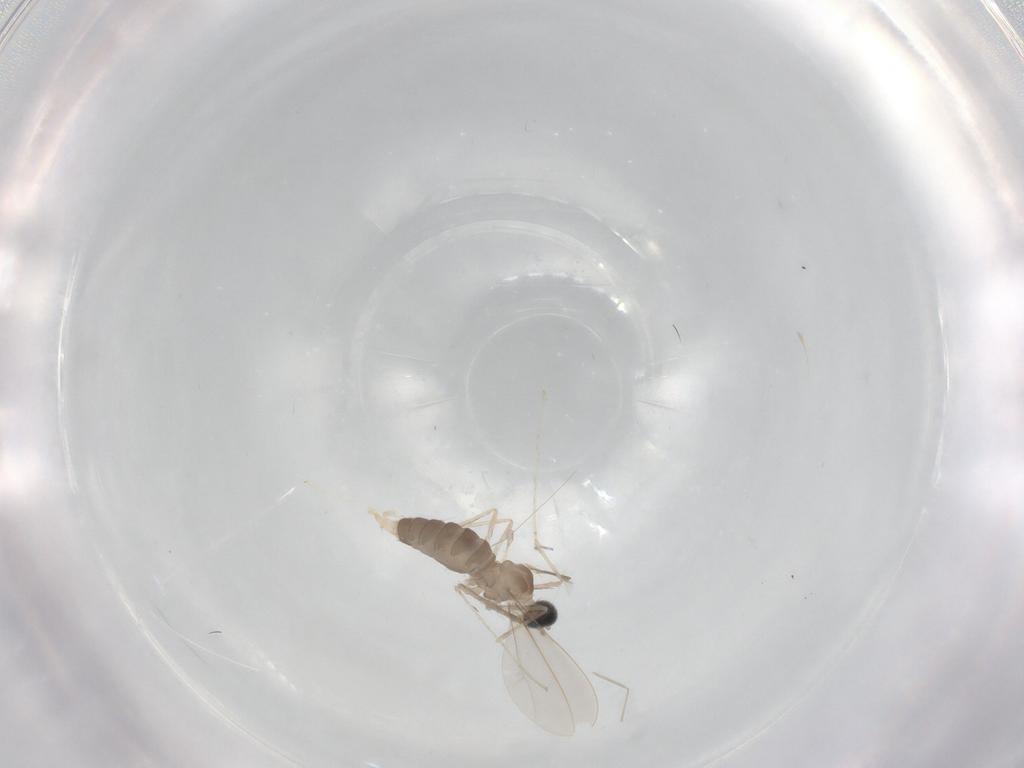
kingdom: Animalia
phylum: Arthropoda
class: Insecta
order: Diptera
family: Cecidomyiidae
